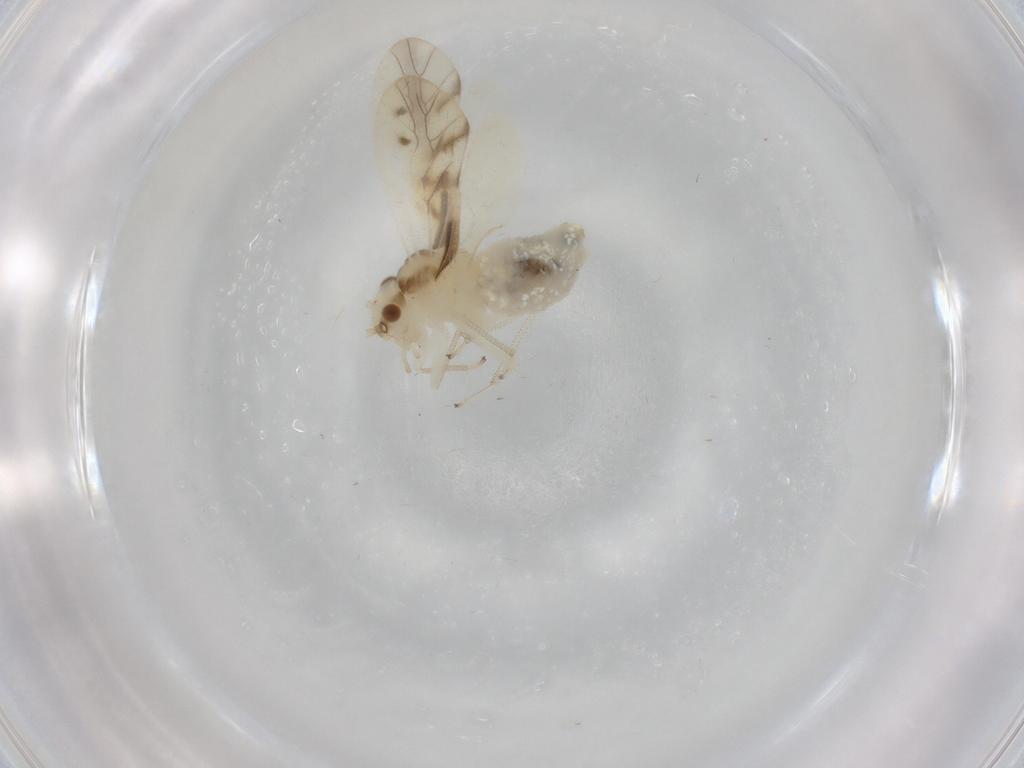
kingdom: Animalia
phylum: Arthropoda
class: Insecta
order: Psocodea
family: Caeciliusidae
